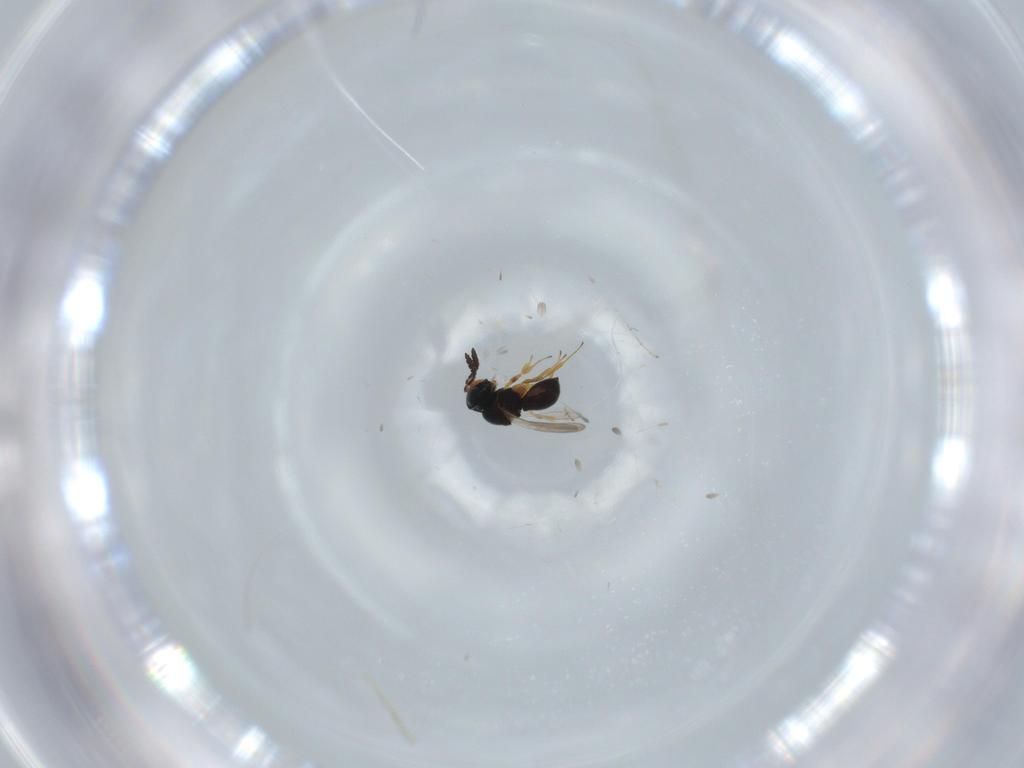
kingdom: Animalia
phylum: Arthropoda
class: Insecta
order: Hymenoptera
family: Scelionidae
